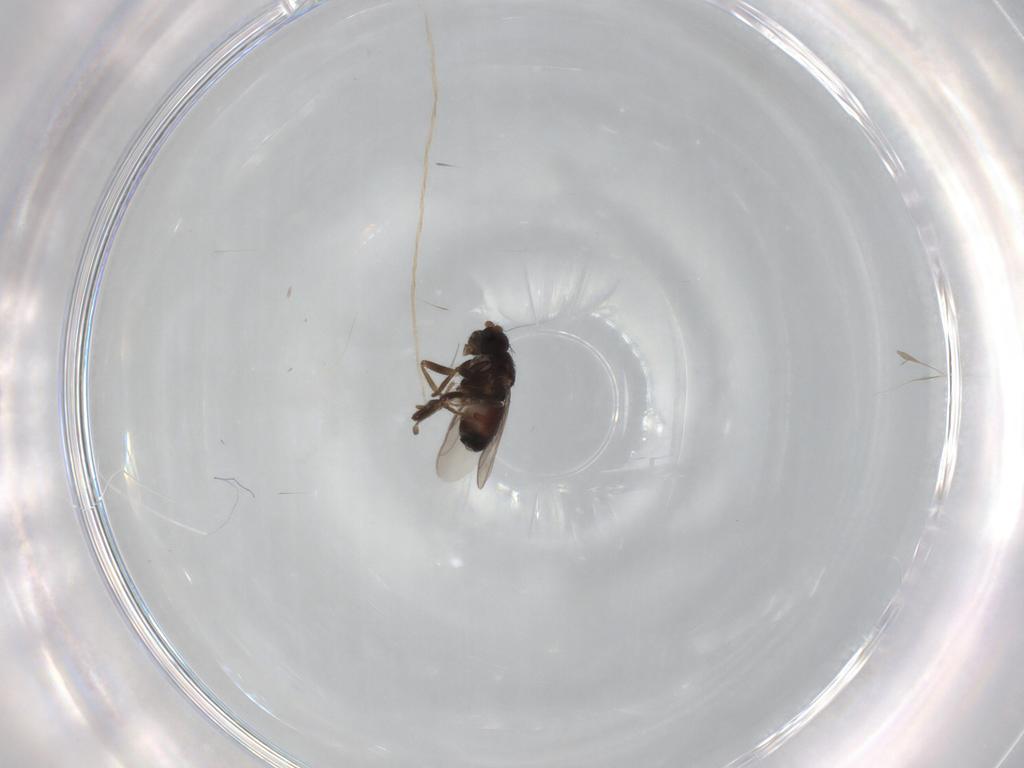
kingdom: Animalia
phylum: Arthropoda
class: Insecta
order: Diptera
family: Sphaeroceridae
